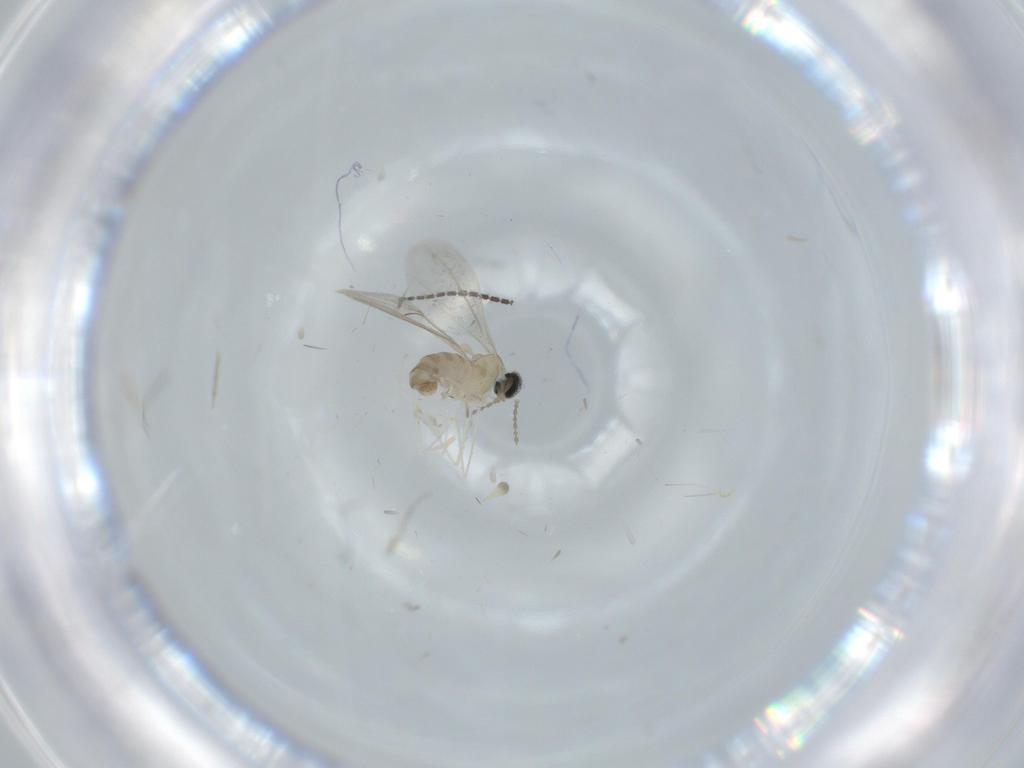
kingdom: Animalia
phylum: Arthropoda
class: Insecta
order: Diptera
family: Cecidomyiidae
